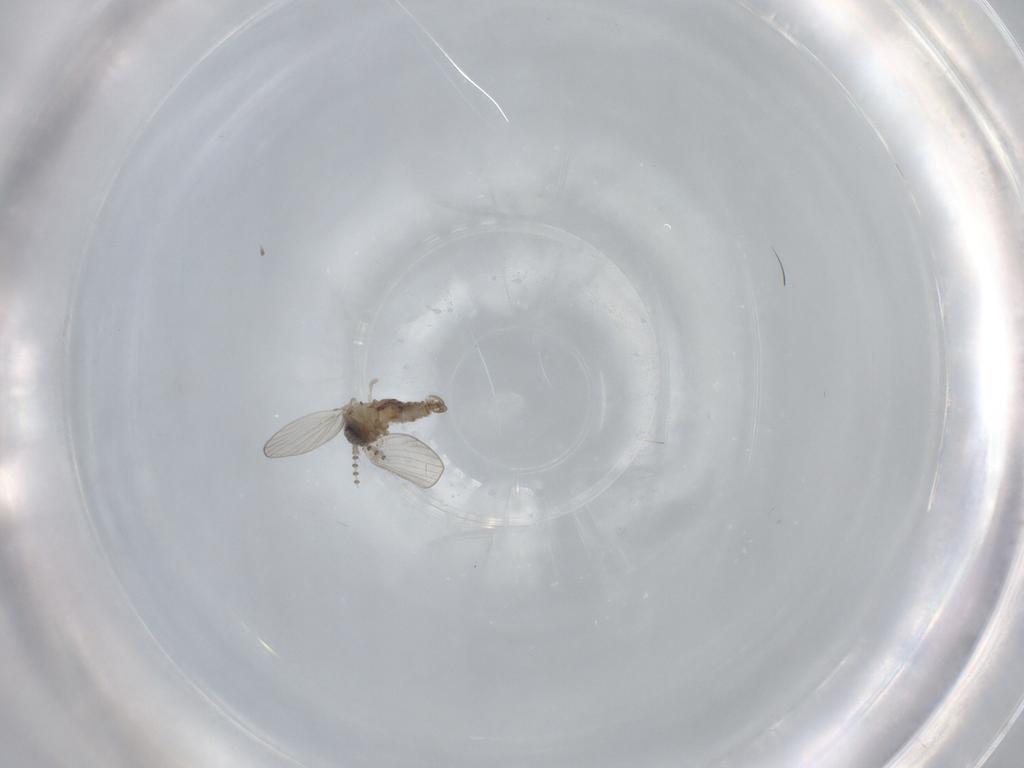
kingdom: Animalia
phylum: Arthropoda
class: Insecta
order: Diptera
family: Psychodidae
